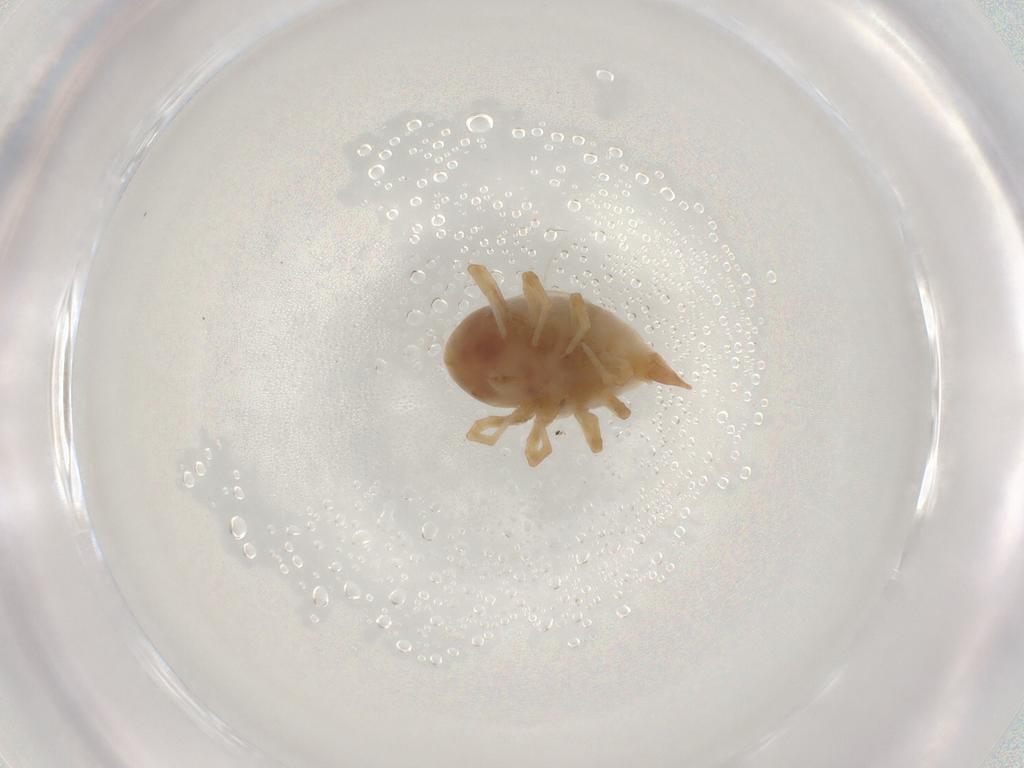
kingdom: Animalia
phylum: Arthropoda
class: Arachnida
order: Trombidiformes
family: Bdellidae
